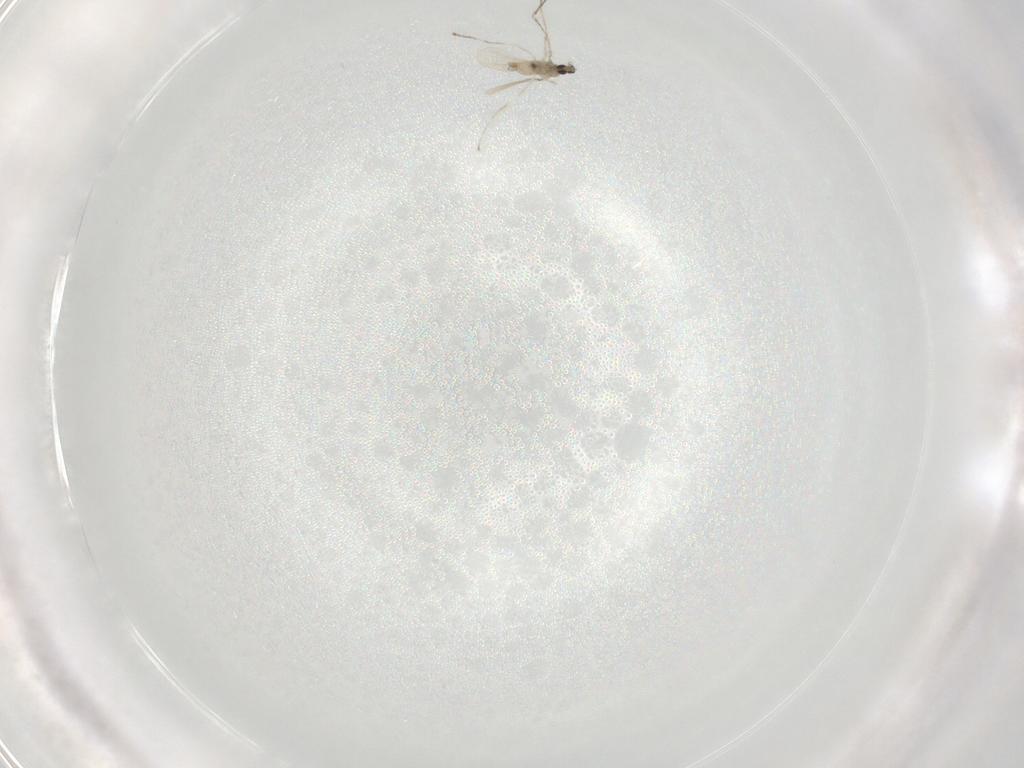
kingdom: Animalia
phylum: Arthropoda
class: Insecta
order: Diptera
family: Cecidomyiidae
